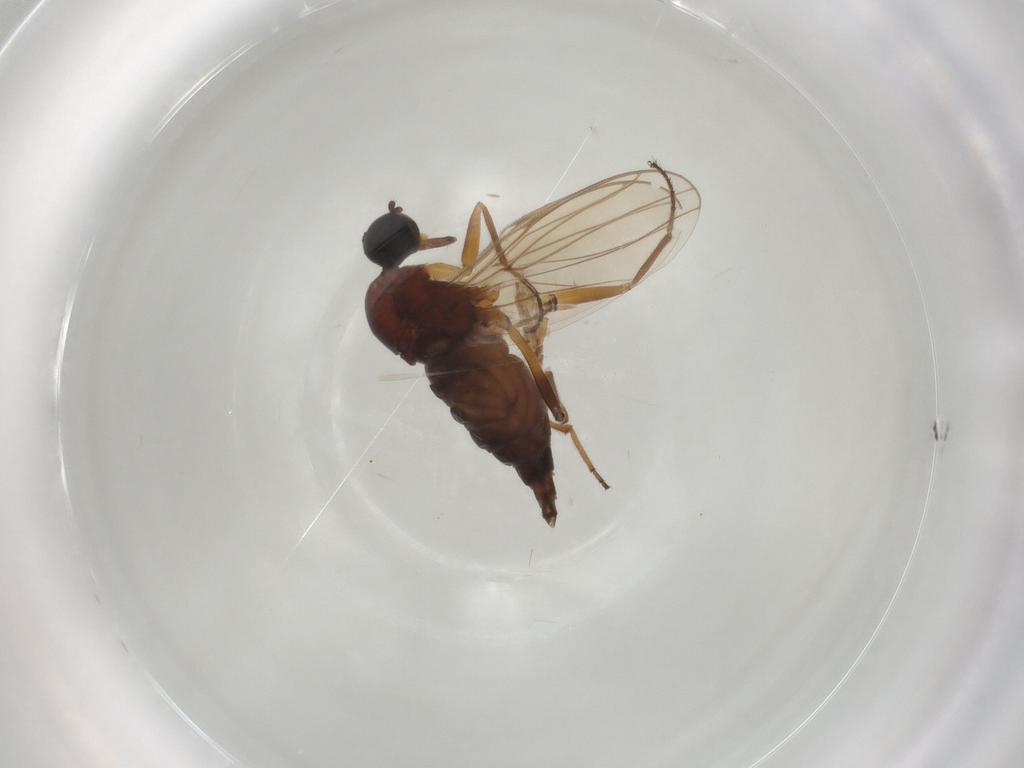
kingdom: Animalia
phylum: Arthropoda
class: Insecta
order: Diptera
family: Hybotidae
